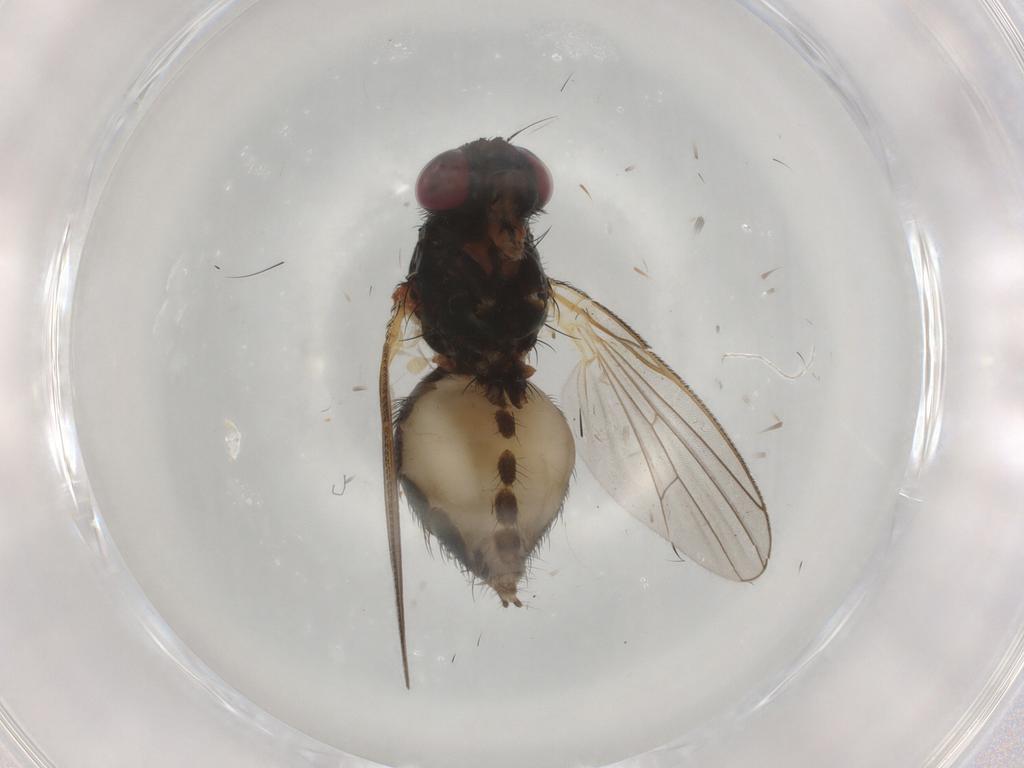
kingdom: Animalia
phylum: Arthropoda
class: Insecta
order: Diptera
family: Fannia
